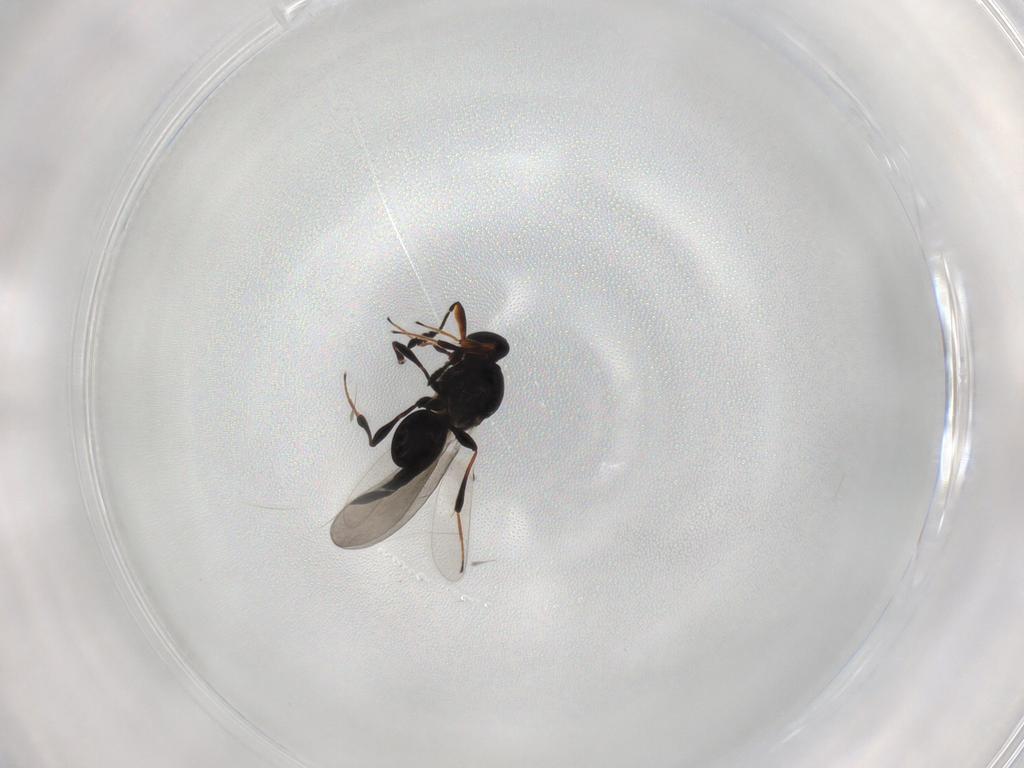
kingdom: Animalia
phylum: Arthropoda
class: Insecta
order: Hymenoptera
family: Platygastridae
